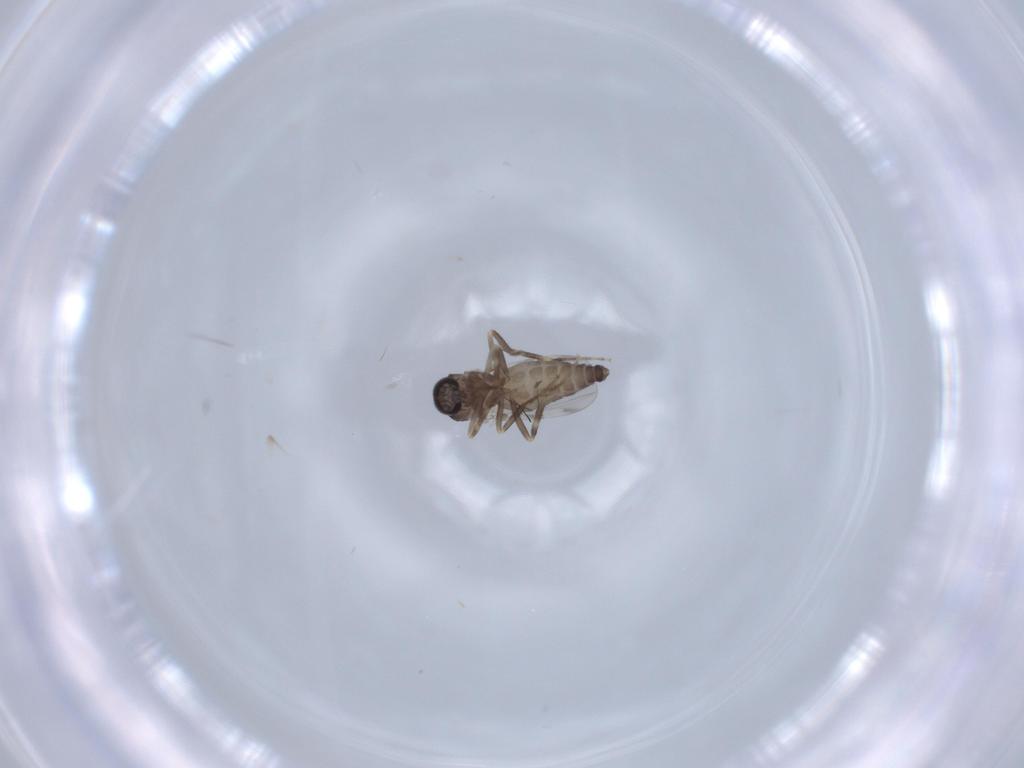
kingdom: Animalia
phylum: Arthropoda
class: Insecta
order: Diptera
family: Ceratopogonidae
